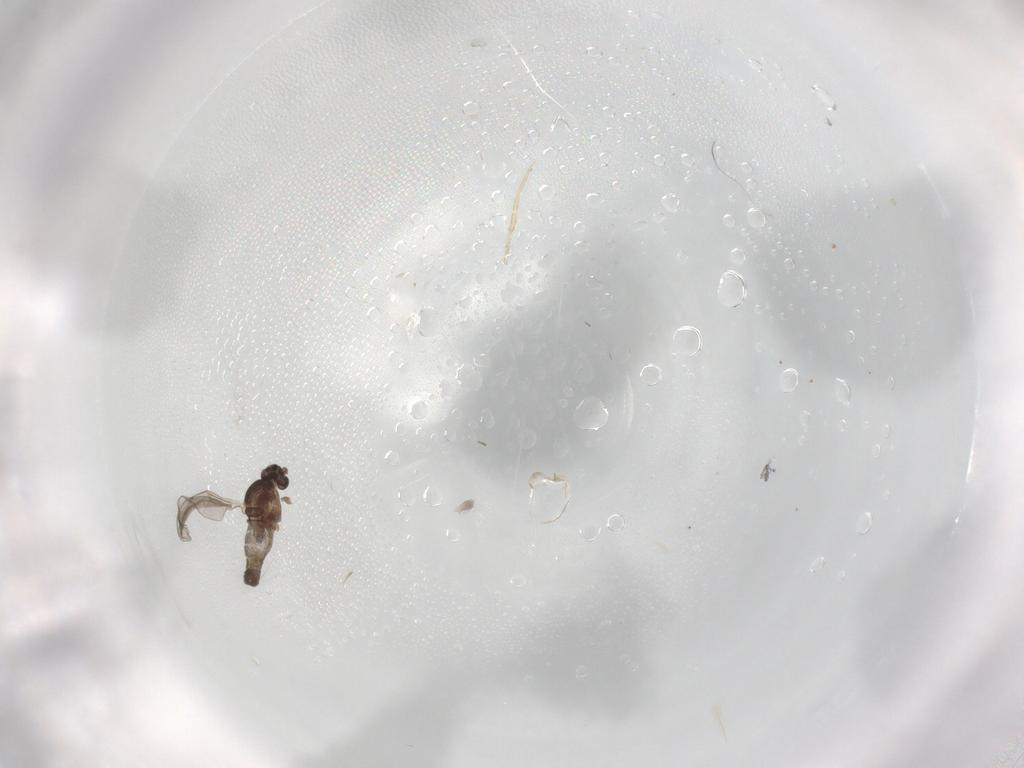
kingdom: Animalia
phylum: Arthropoda
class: Insecta
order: Diptera
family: Cecidomyiidae
